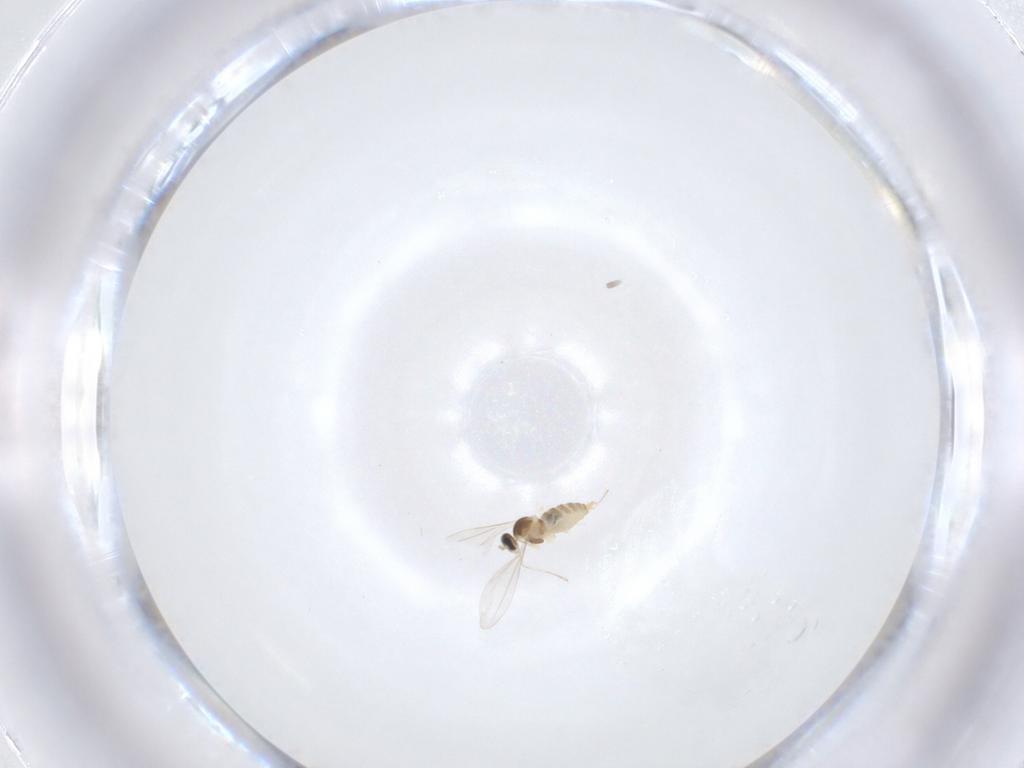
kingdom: Animalia
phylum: Arthropoda
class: Insecta
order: Diptera
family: Cecidomyiidae
